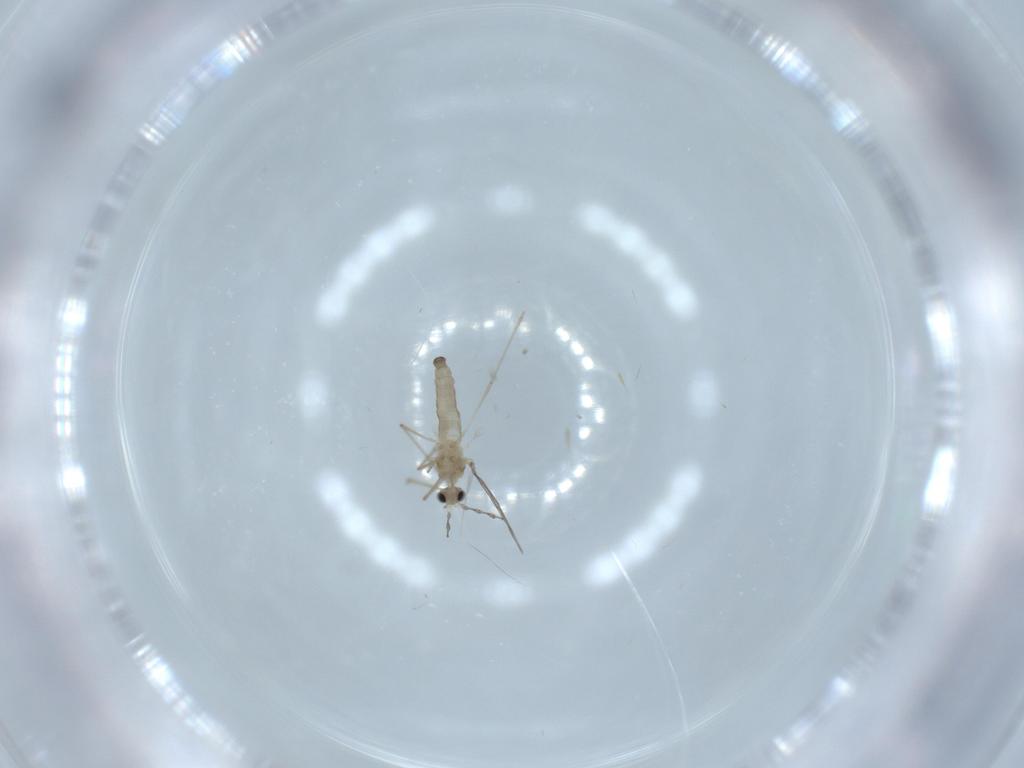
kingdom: Animalia
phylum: Arthropoda
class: Insecta
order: Diptera
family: Cecidomyiidae
